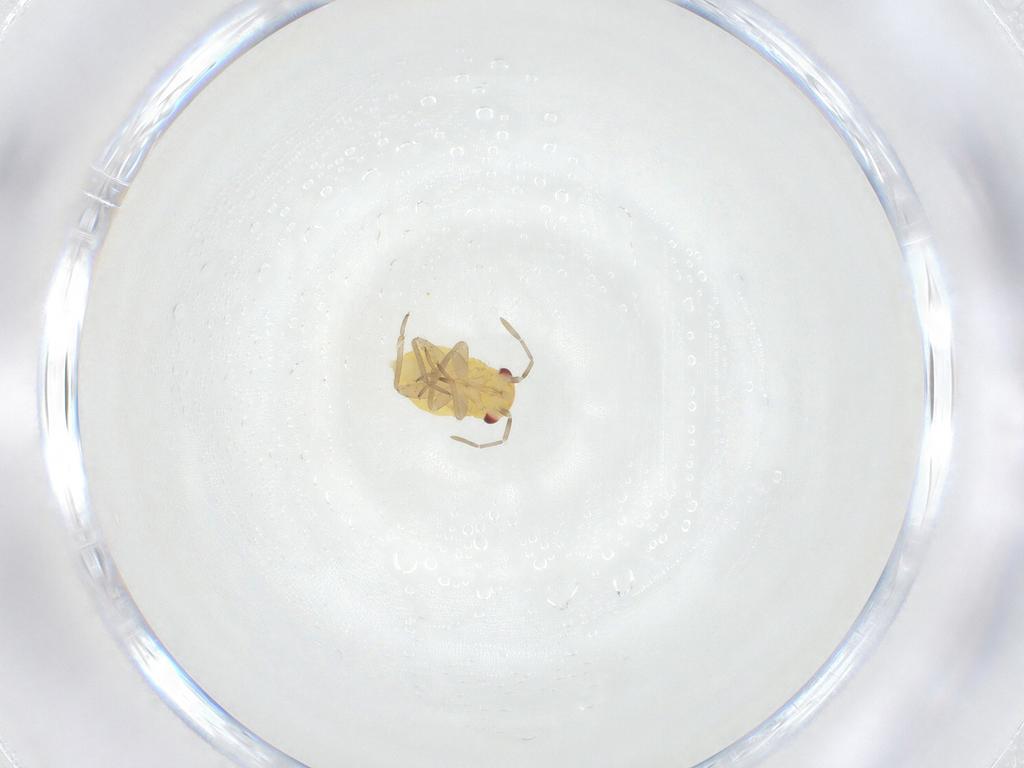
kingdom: Animalia
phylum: Arthropoda
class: Insecta
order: Hemiptera
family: Miridae
